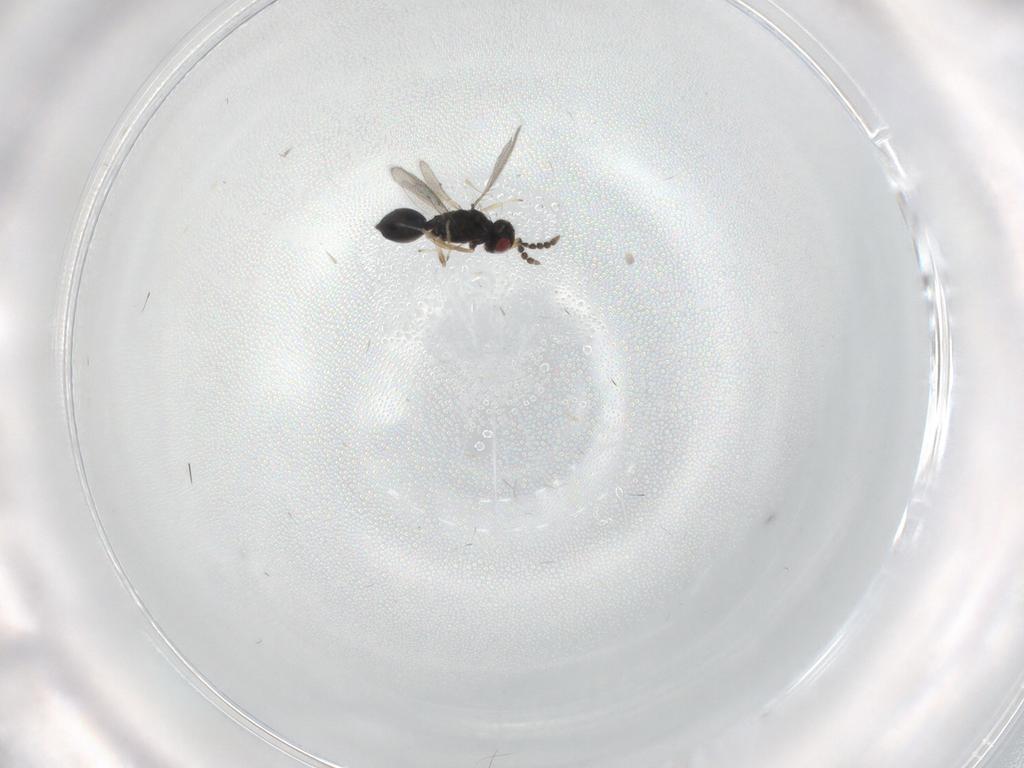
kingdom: Animalia
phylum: Arthropoda
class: Insecta
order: Hymenoptera
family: Eulophidae
